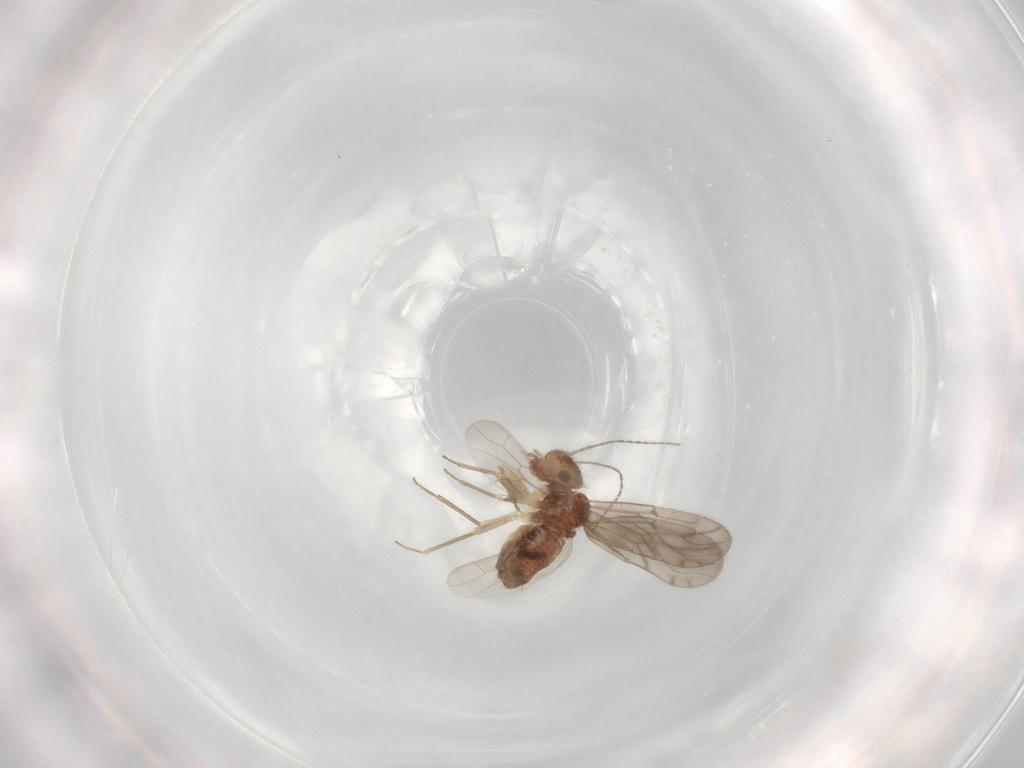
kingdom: Animalia
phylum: Arthropoda
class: Insecta
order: Psocodea
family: Ectopsocidae
